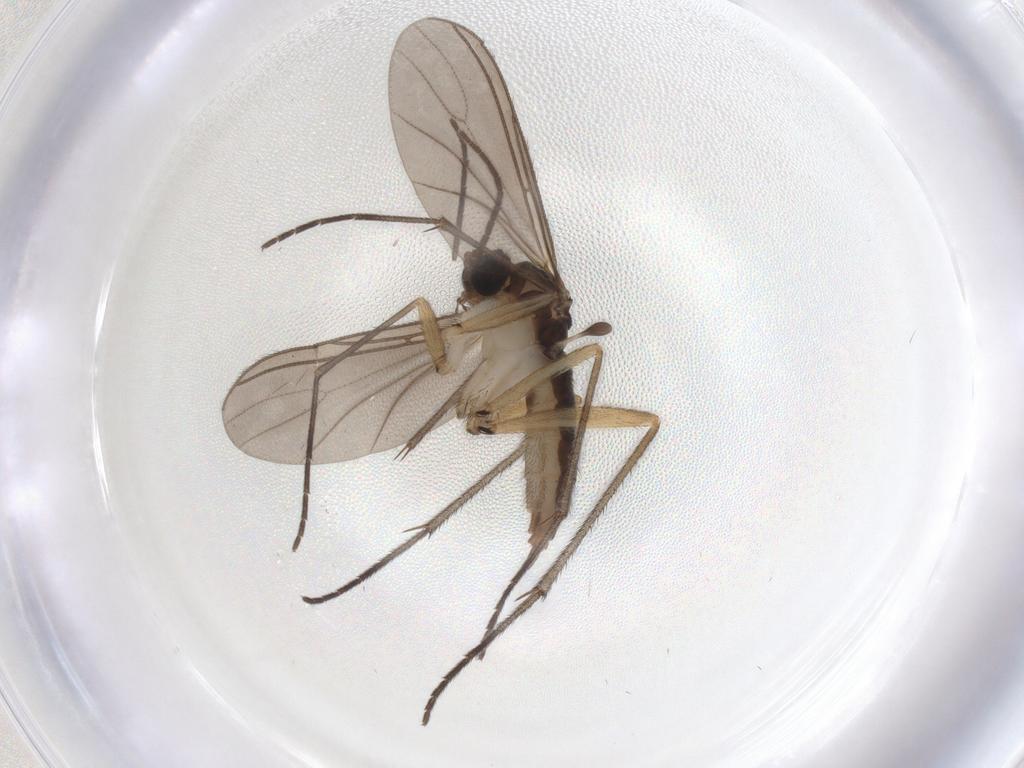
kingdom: Animalia
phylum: Arthropoda
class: Insecta
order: Diptera
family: Sciaridae
